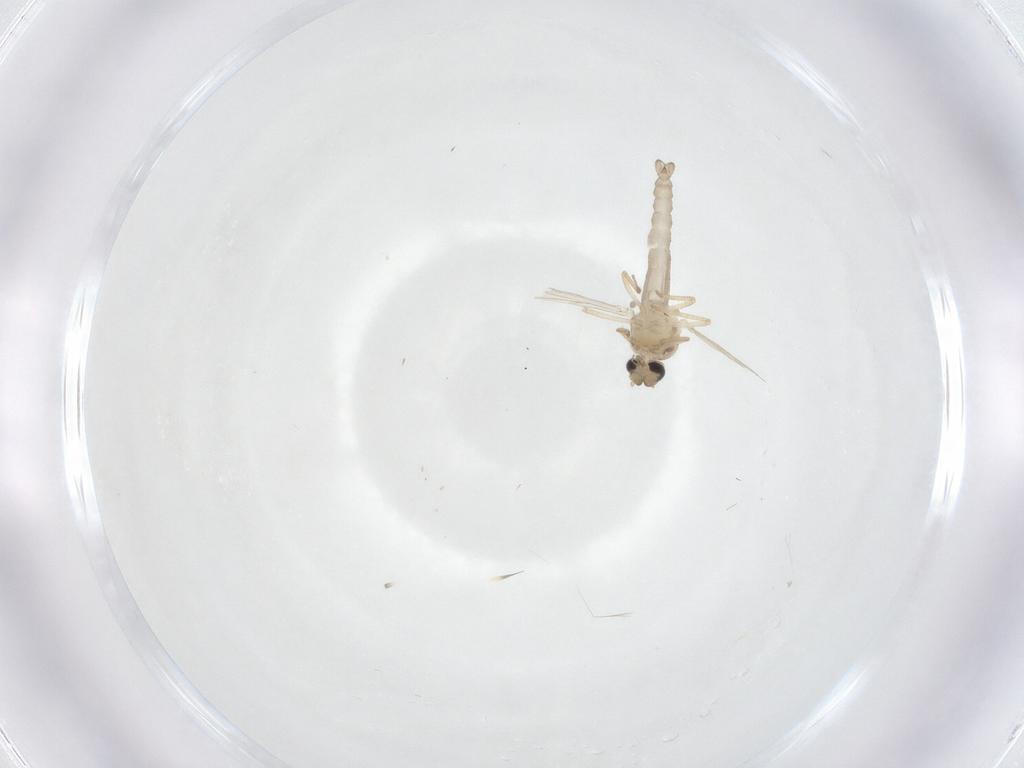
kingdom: Animalia
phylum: Arthropoda
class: Insecta
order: Diptera
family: Ceratopogonidae
